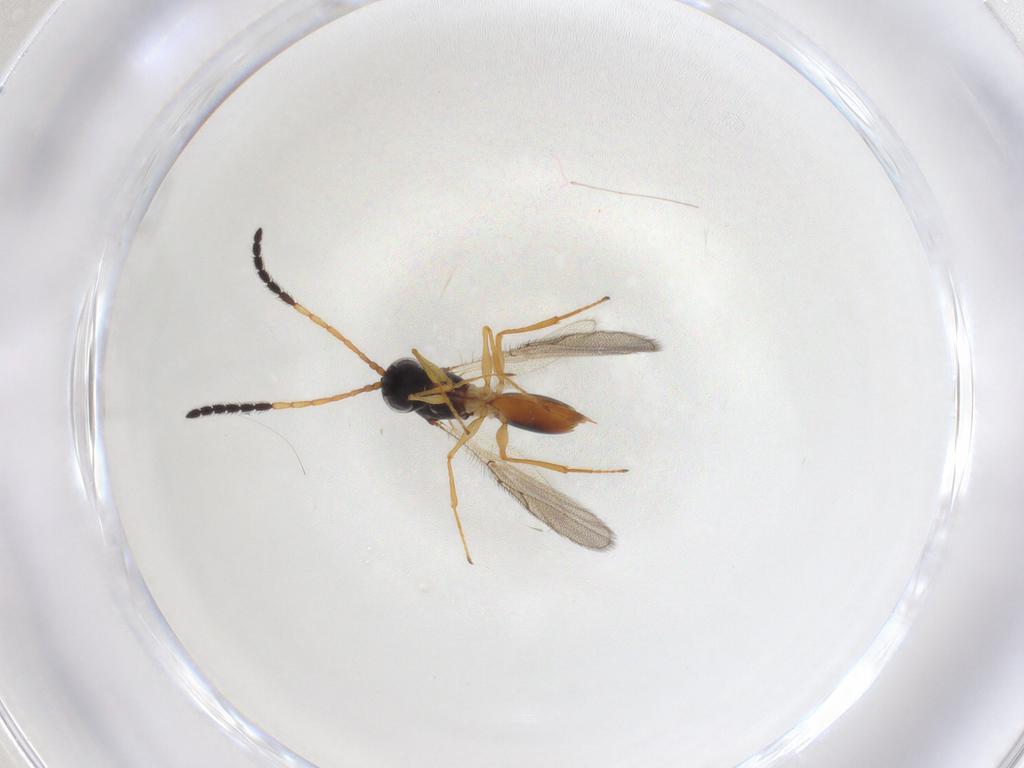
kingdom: Animalia
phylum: Arthropoda
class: Insecta
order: Hymenoptera
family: Figitidae
